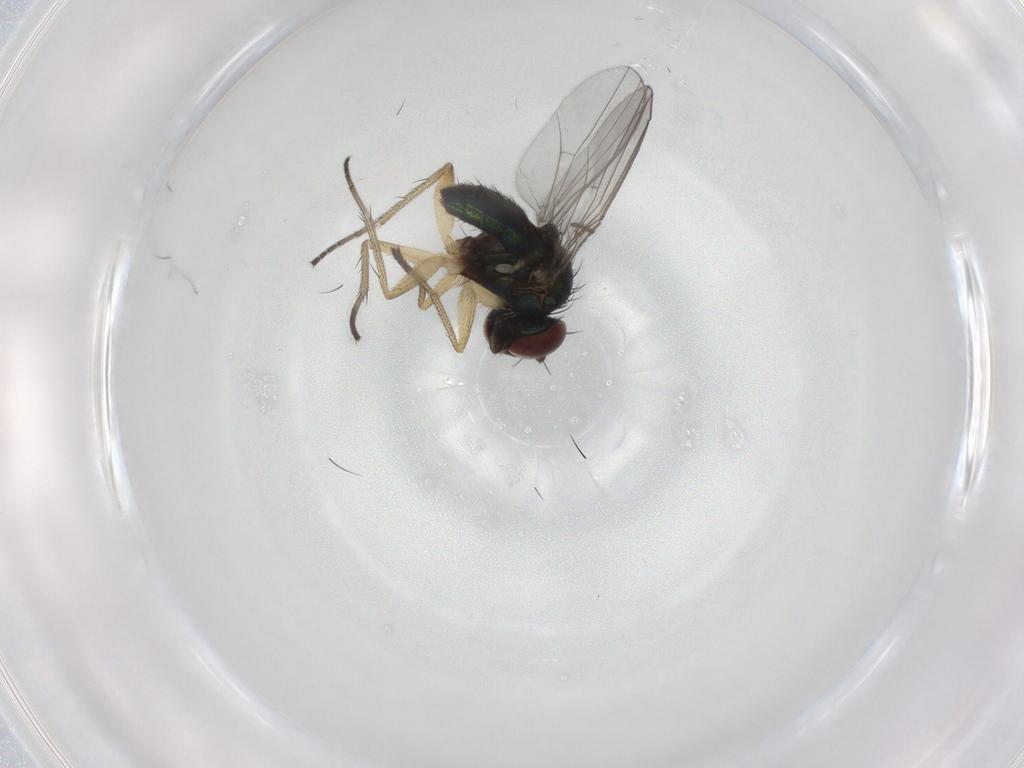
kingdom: Animalia
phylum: Arthropoda
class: Insecta
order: Diptera
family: Sciaridae
